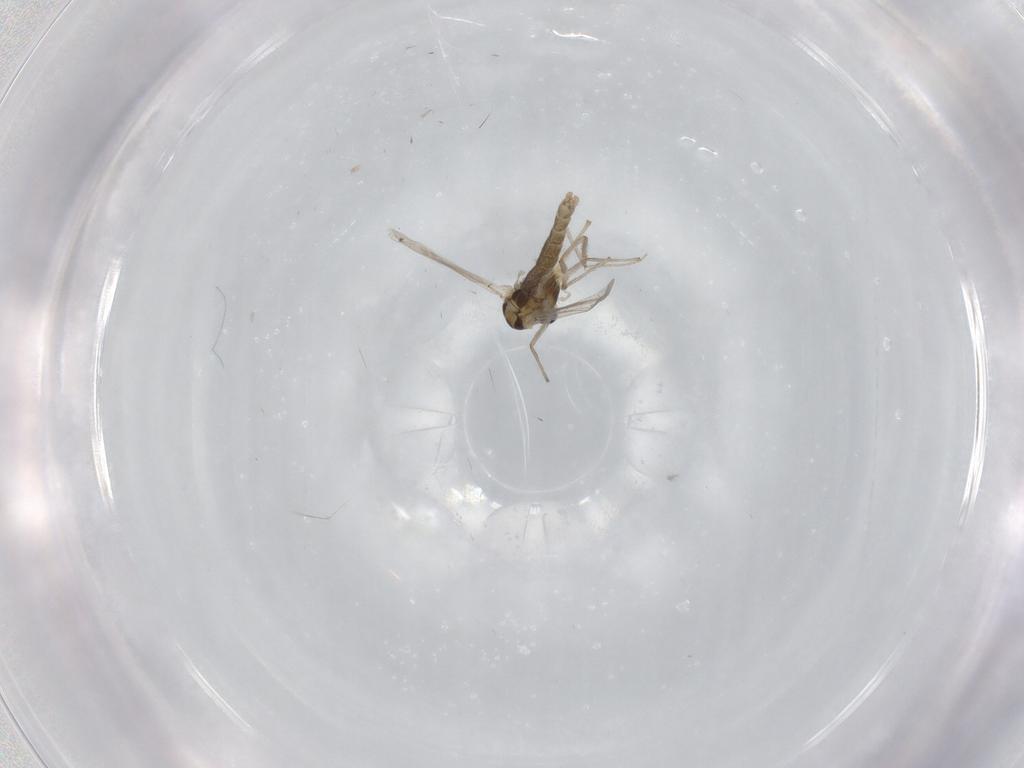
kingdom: Animalia
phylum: Arthropoda
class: Insecta
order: Diptera
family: Chironomidae
